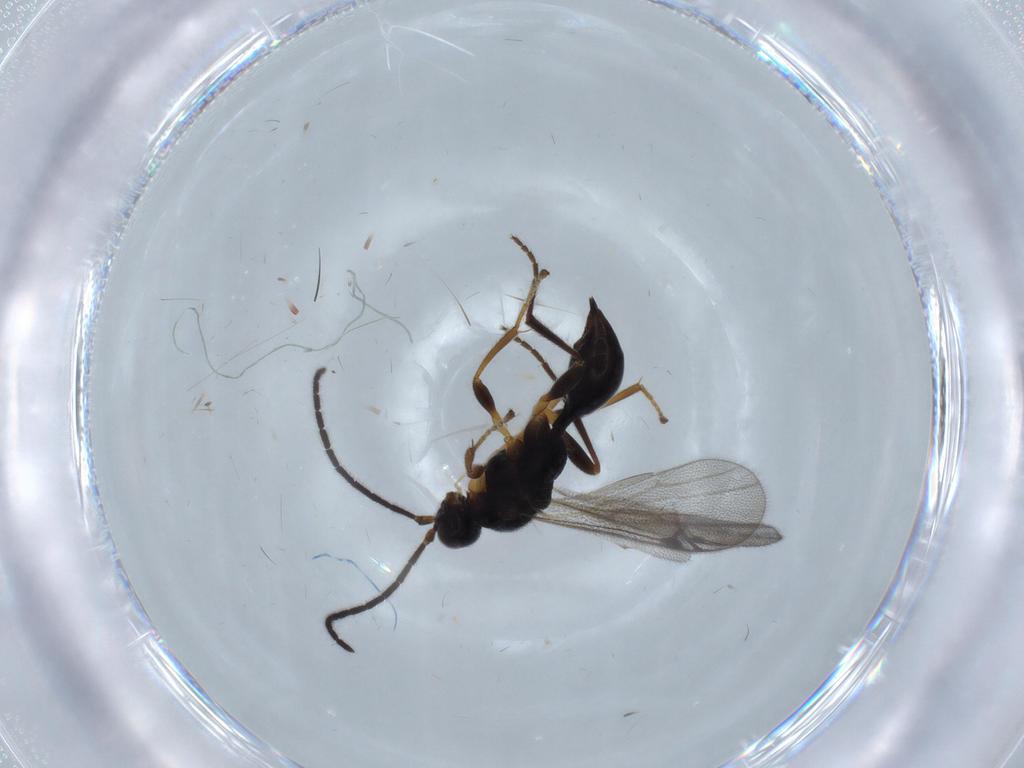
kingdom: Animalia
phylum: Arthropoda
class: Insecta
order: Hymenoptera
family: Proctotrupidae
